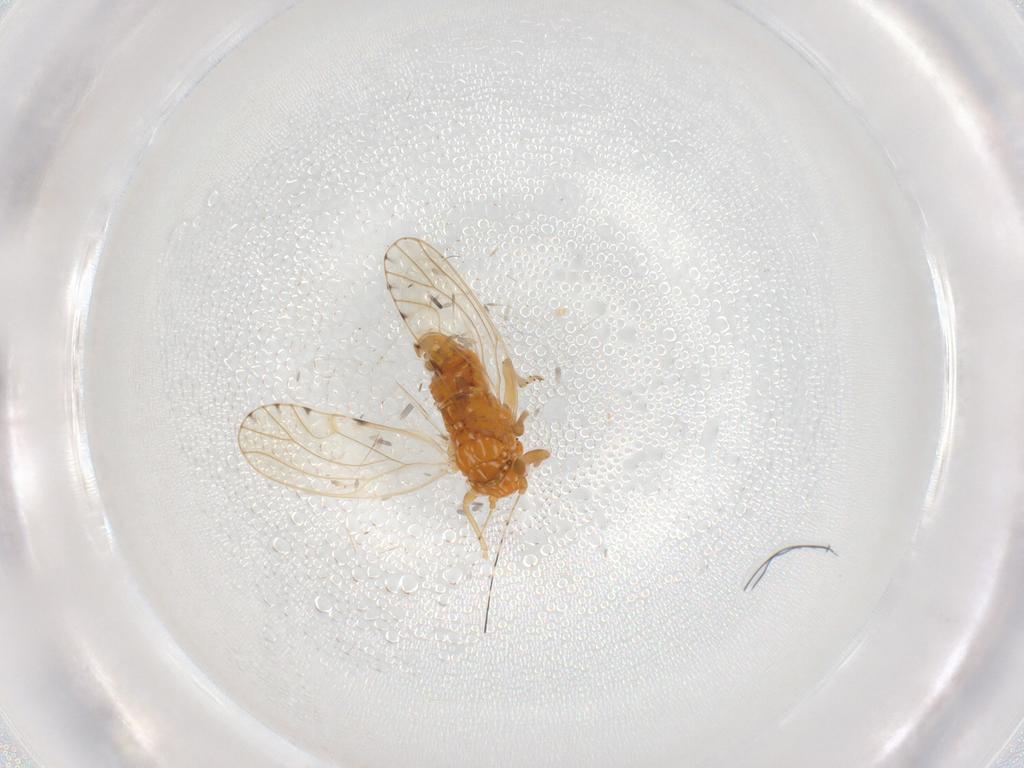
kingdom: Animalia
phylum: Arthropoda
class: Insecta
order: Hemiptera
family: Psylloidea_incertae_sedis
